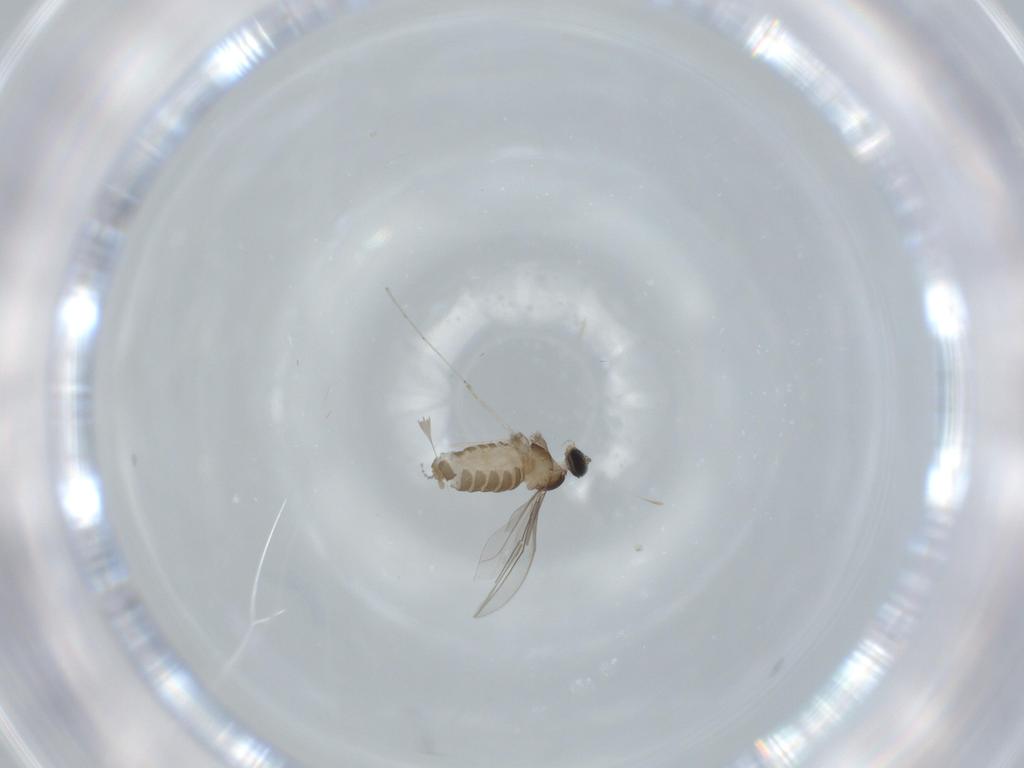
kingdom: Animalia
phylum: Arthropoda
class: Insecta
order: Diptera
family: Cecidomyiidae
